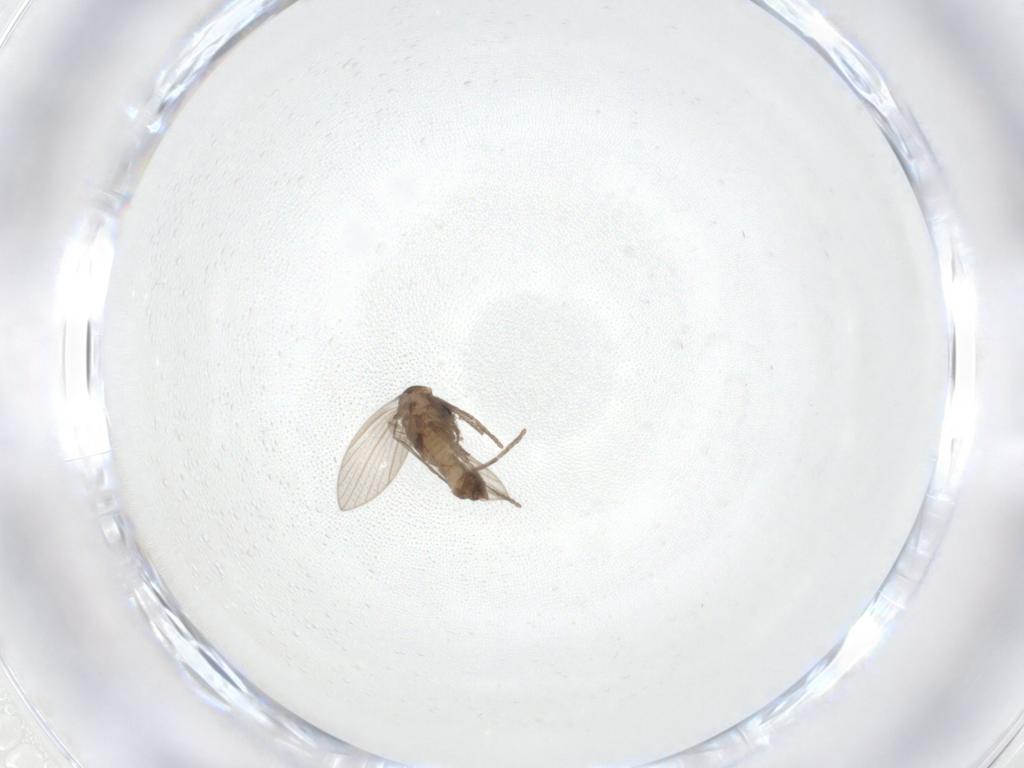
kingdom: Animalia
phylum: Arthropoda
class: Insecta
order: Diptera
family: Psychodidae
